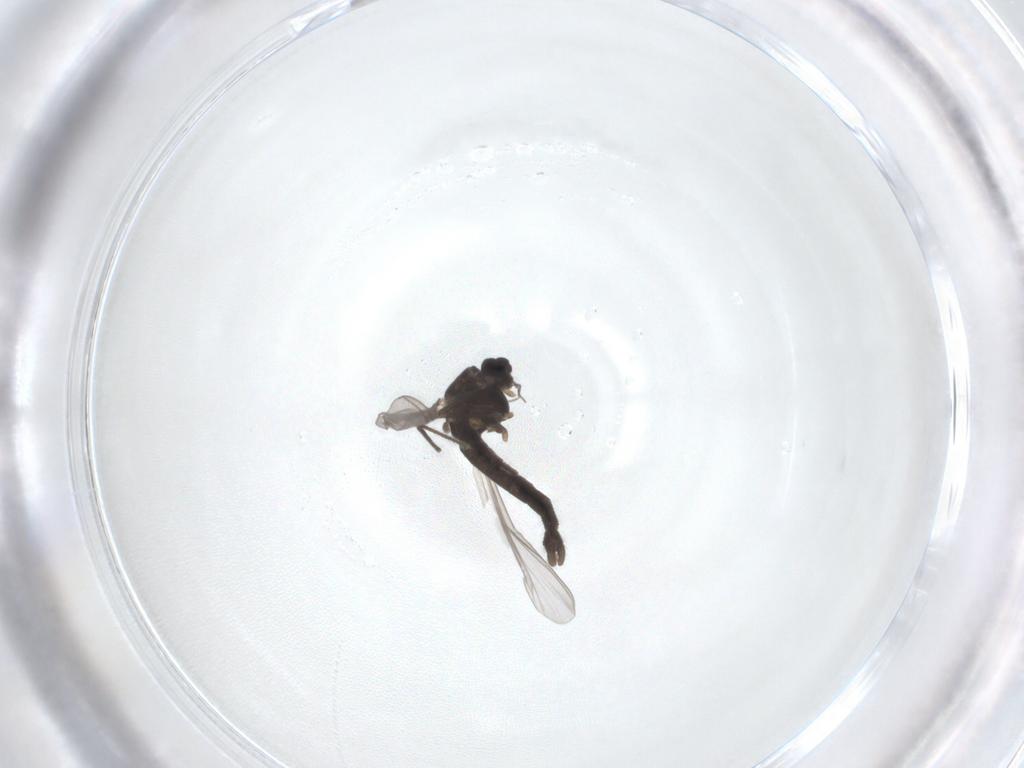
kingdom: Animalia
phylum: Arthropoda
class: Insecta
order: Diptera
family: Chironomidae
